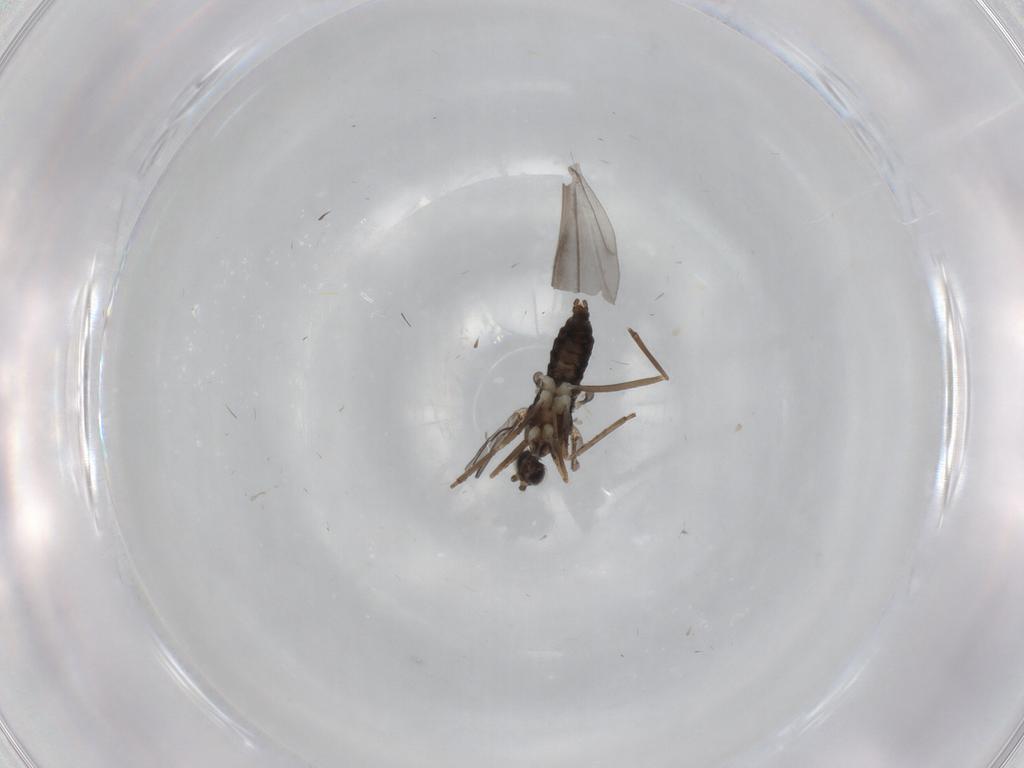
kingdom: Animalia
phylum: Arthropoda
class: Insecta
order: Diptera
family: Cecidomyiidae
